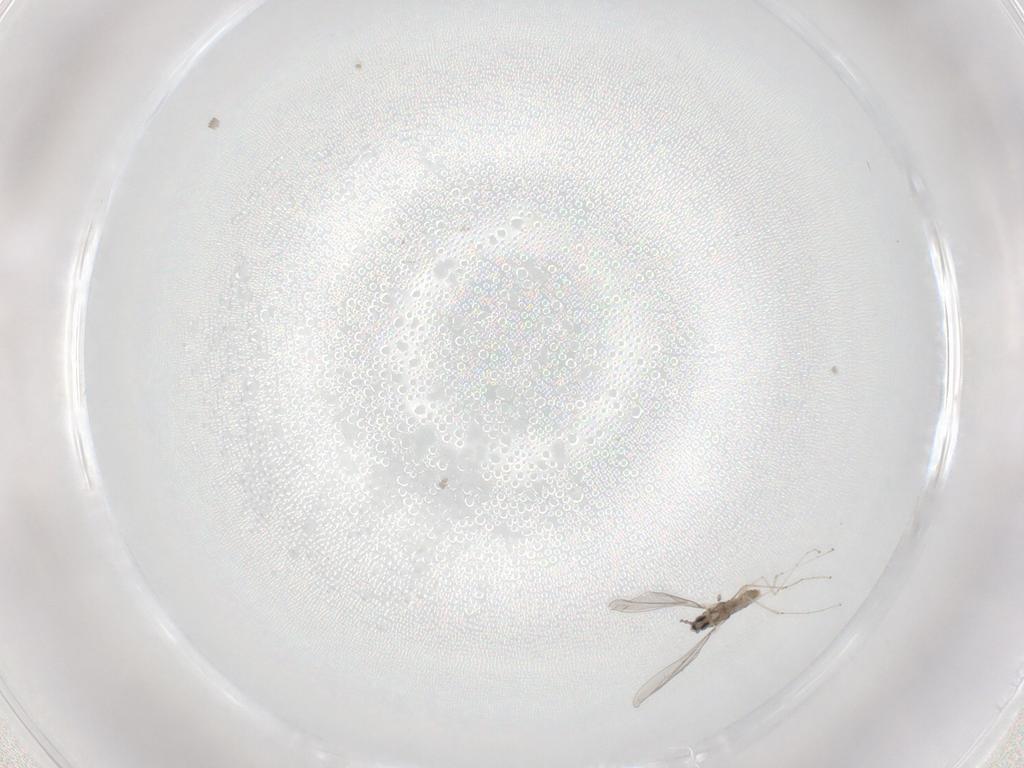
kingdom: Animalia
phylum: Arthropoda
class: Insecta
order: Diptera
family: Cecidomyiidae
